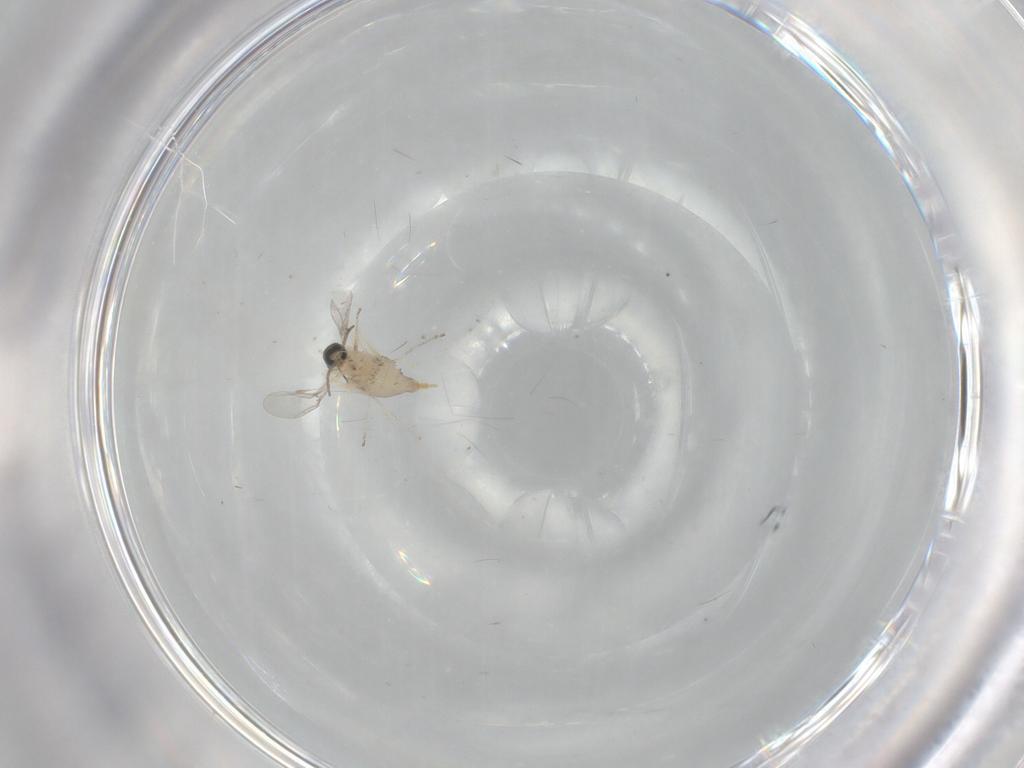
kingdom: Animalia
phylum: Arthropoda
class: Insecta
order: Diptera
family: Cecidomyiidae
